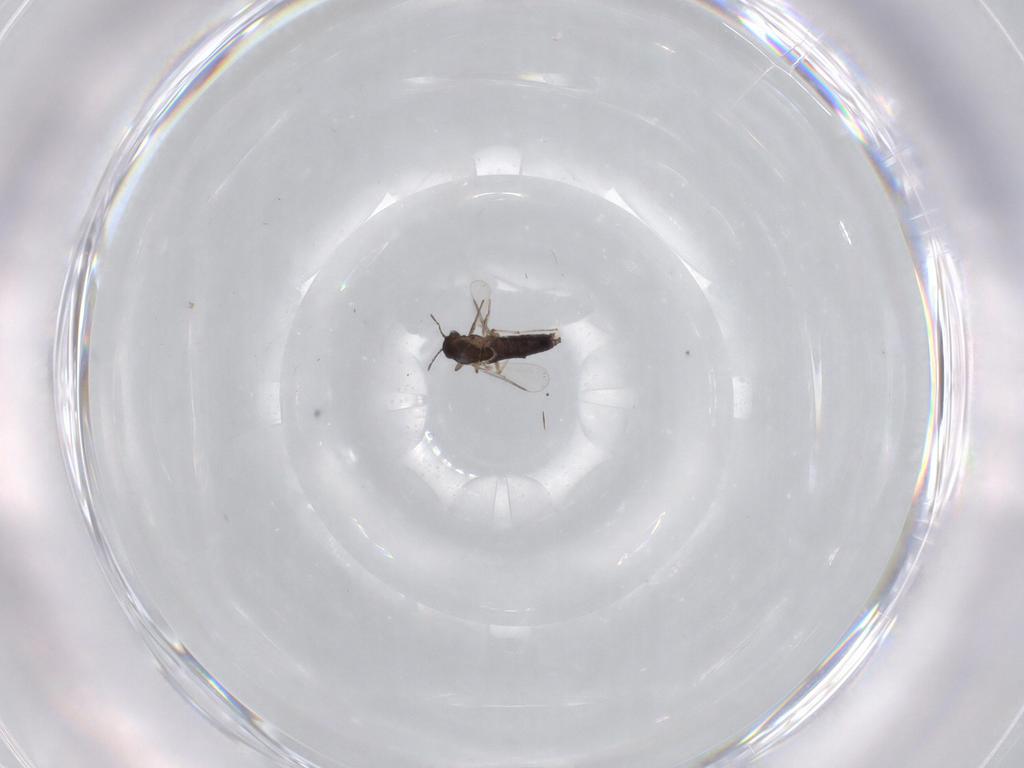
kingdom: Animalia
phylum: Arthropoda
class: Insecta
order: Diptera
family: Chironomidae
